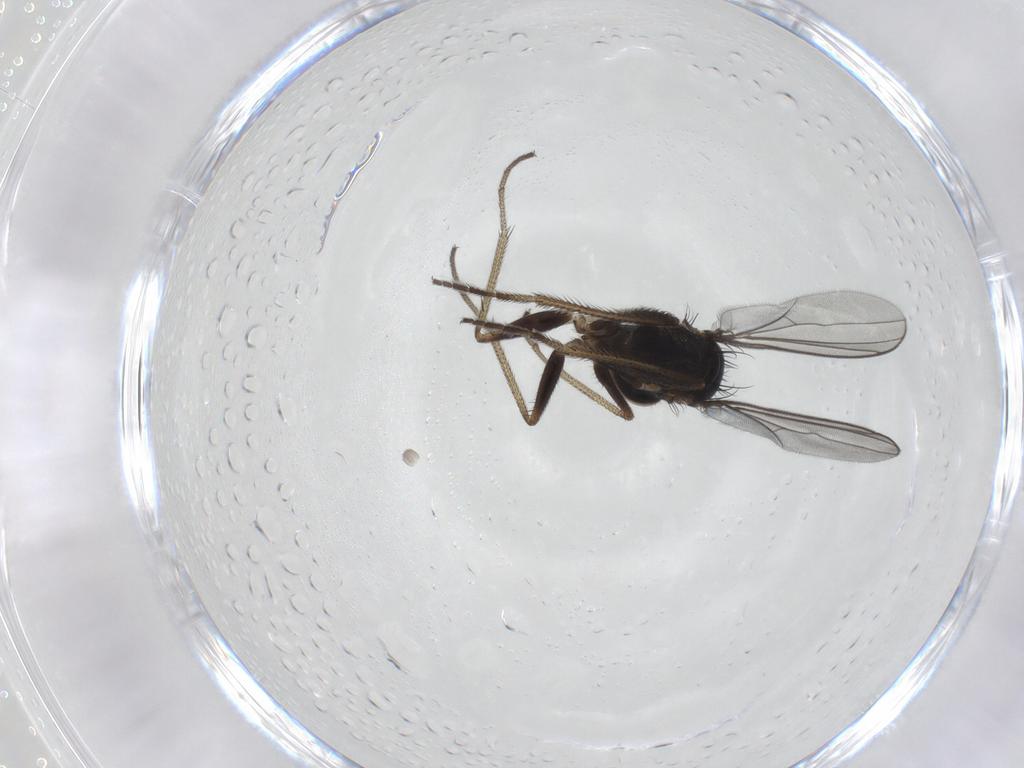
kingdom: Animalia
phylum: Arthropoda
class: Insecta
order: Diptera
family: Dolichopodidae
